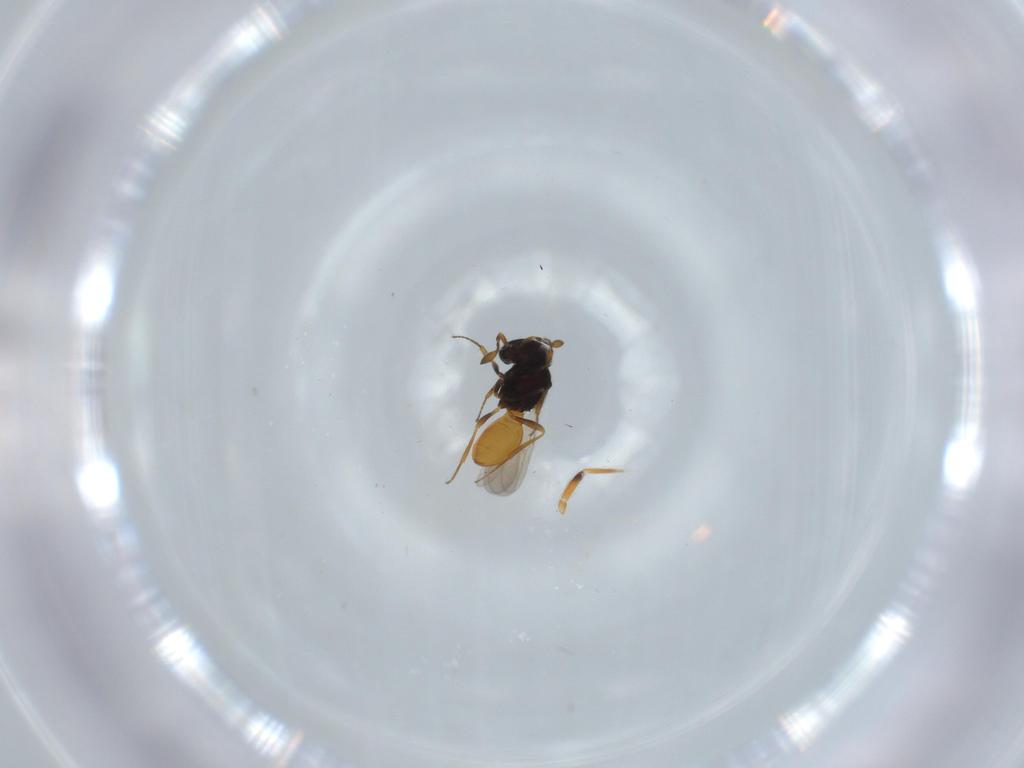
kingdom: Animalia
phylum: Arthropoda
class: Insecta
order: Hymenoptera
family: Scelionidae
